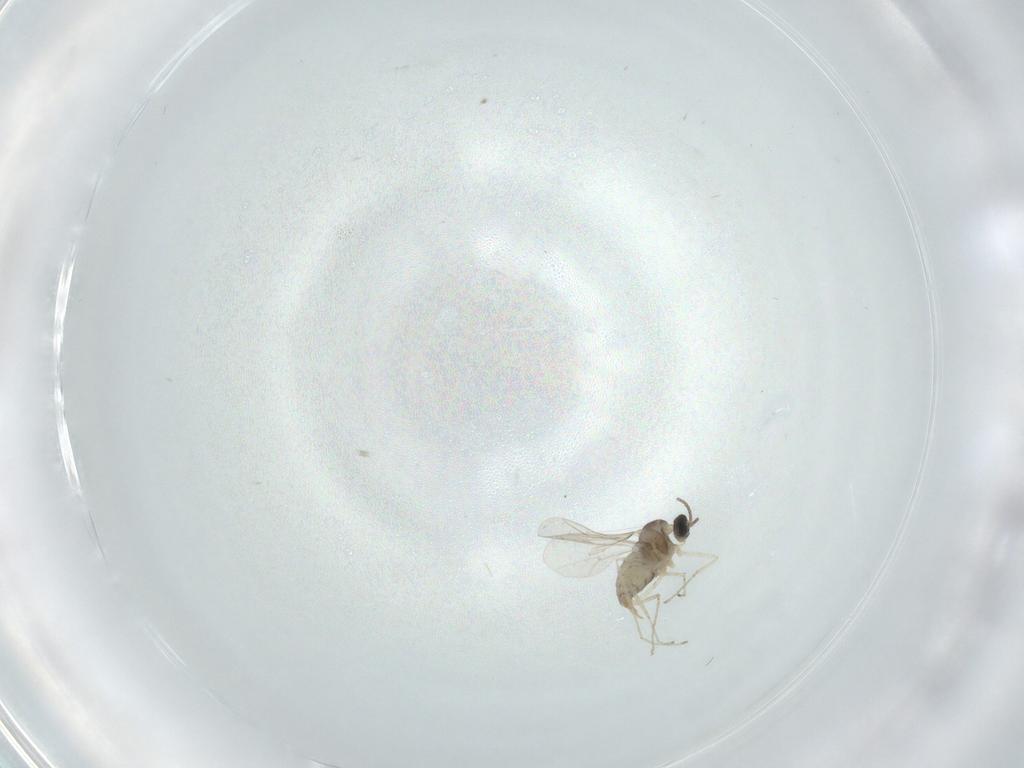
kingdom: Animalia
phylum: Arthropoda
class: Insecta
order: Diptera
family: Cecidomyiidae
